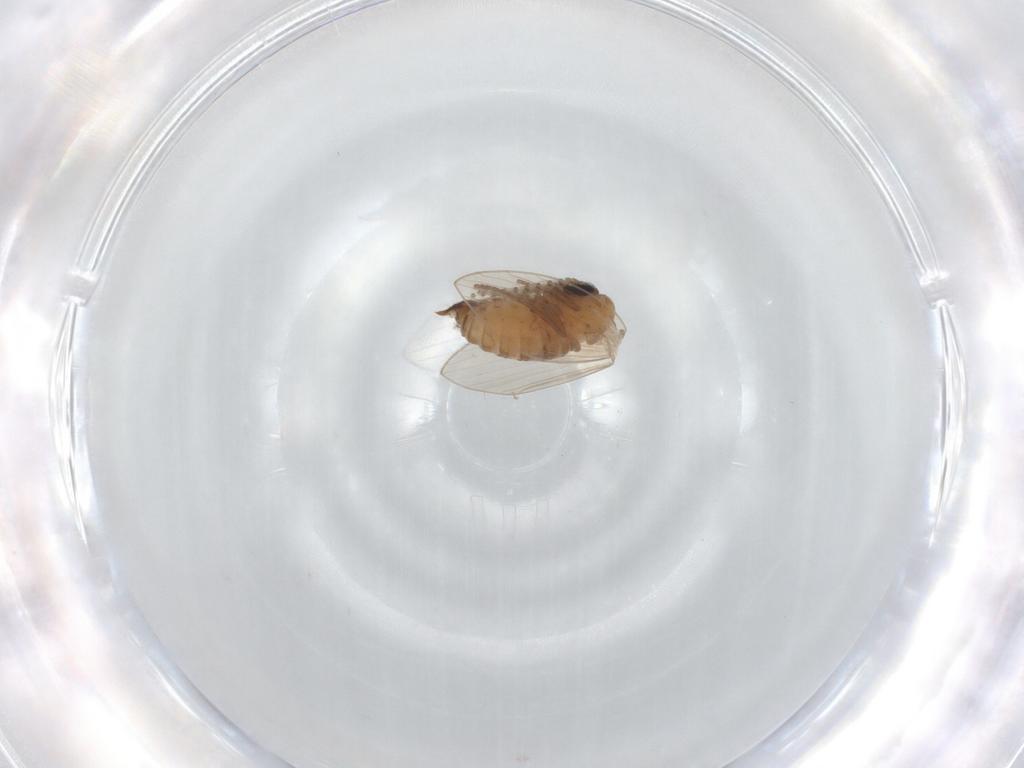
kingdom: Animalia
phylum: Arthropoda
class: Insecta
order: Diptera
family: Psychodidae
